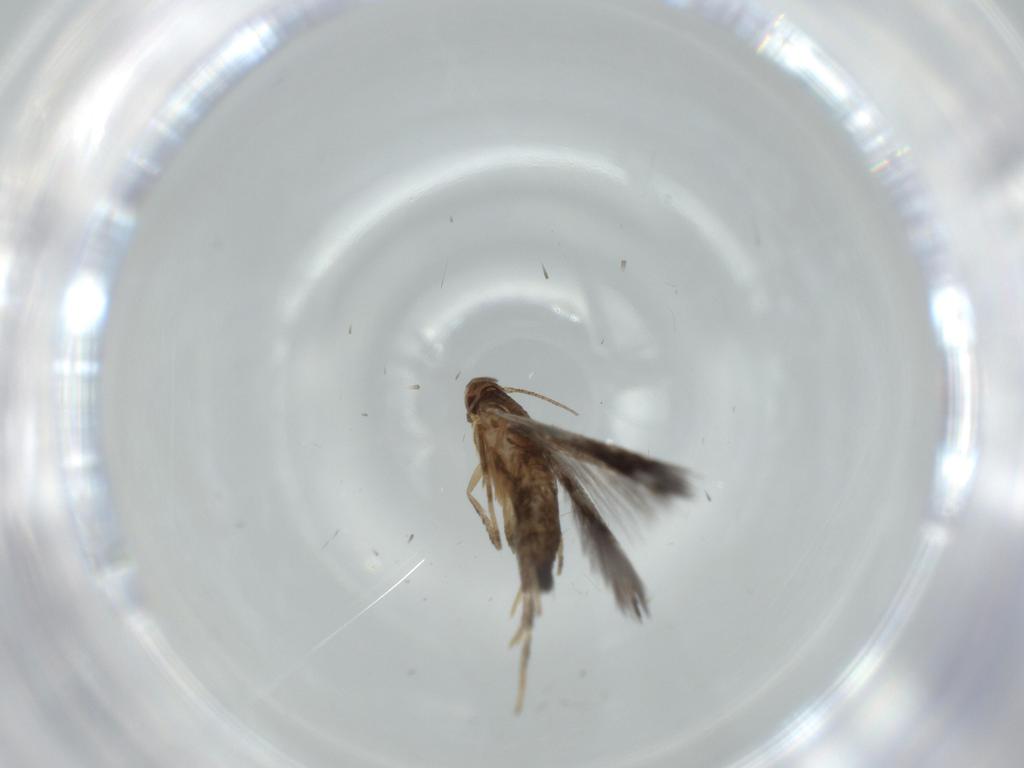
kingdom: Animalia
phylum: Arthropoda
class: Insecta
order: Lepidoptera
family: Cosmopterigidae
